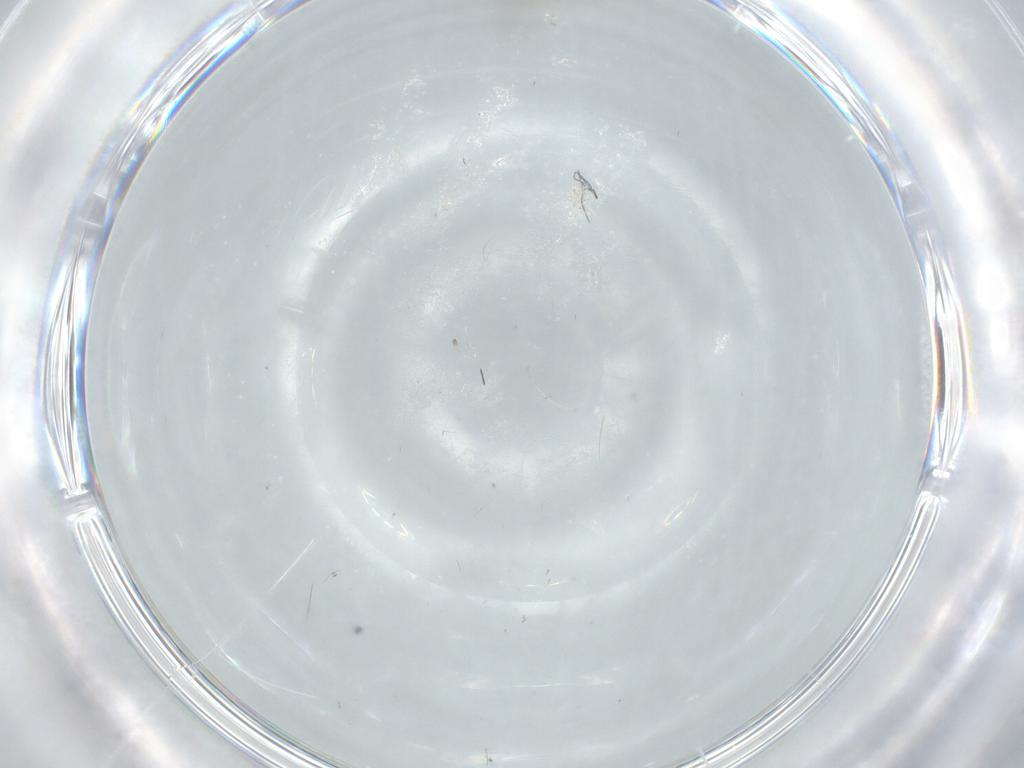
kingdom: Animalia
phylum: Arthropoda
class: Insecta
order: Diptera
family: Chironomidae
